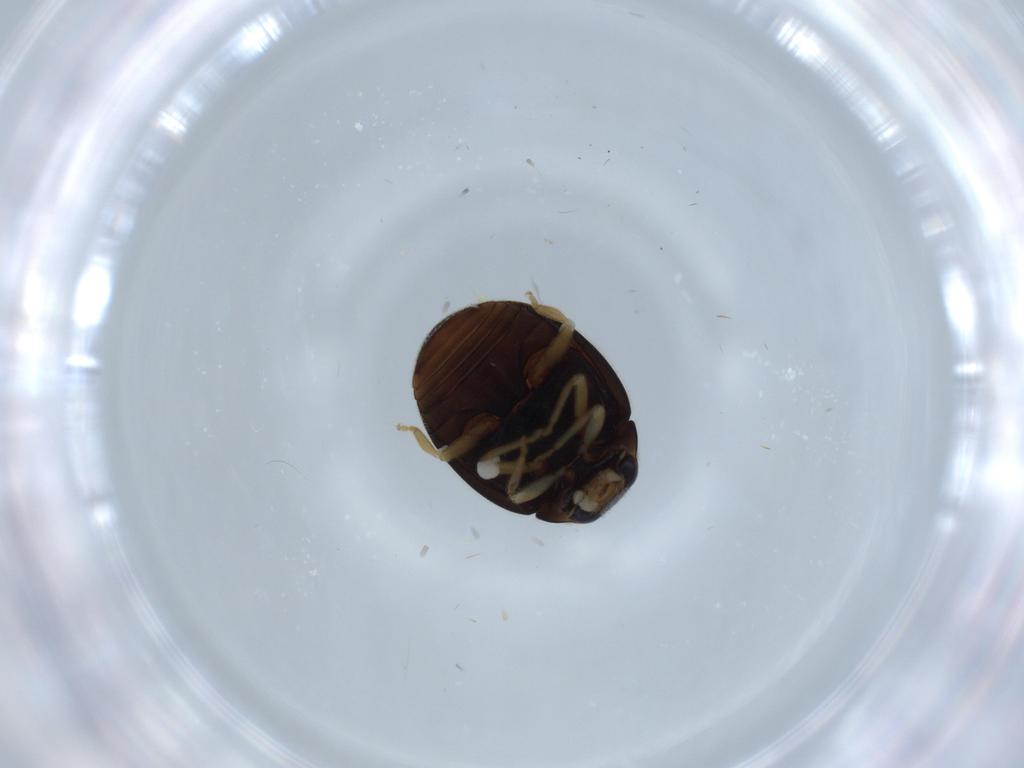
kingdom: Animalia
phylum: Arthropoda
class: Insecta
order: Coleoptera
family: Coccinellidae
